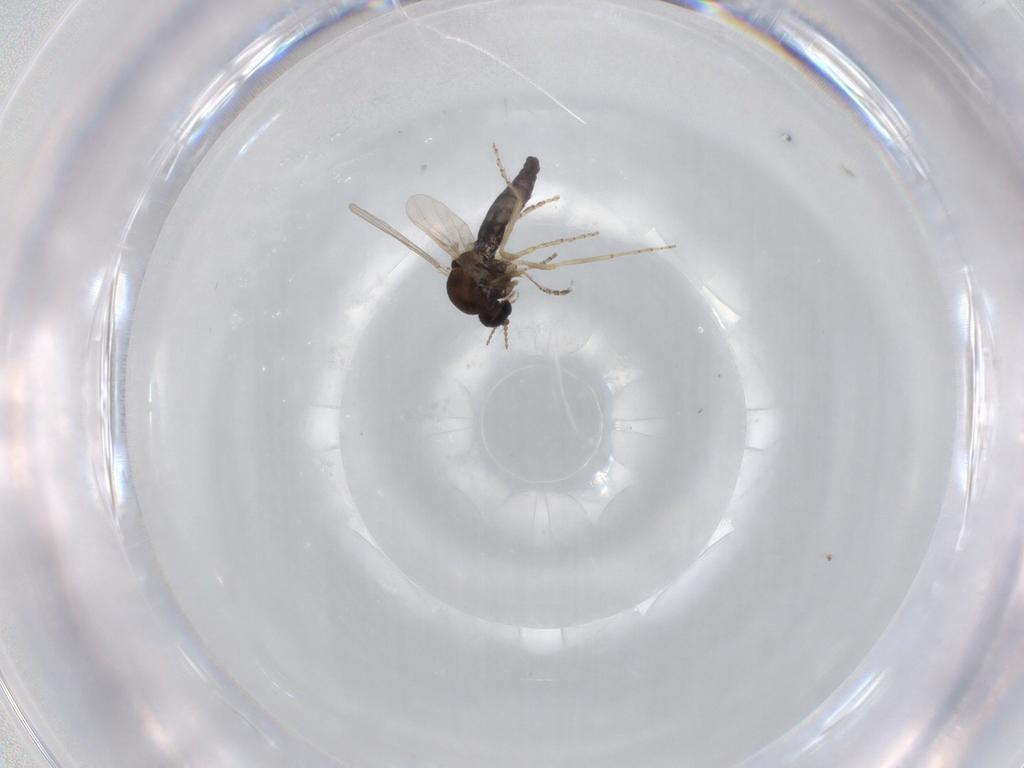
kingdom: Animalia
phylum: Arthropoda
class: Insecta
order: Diptera
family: Ceratopogonidae
